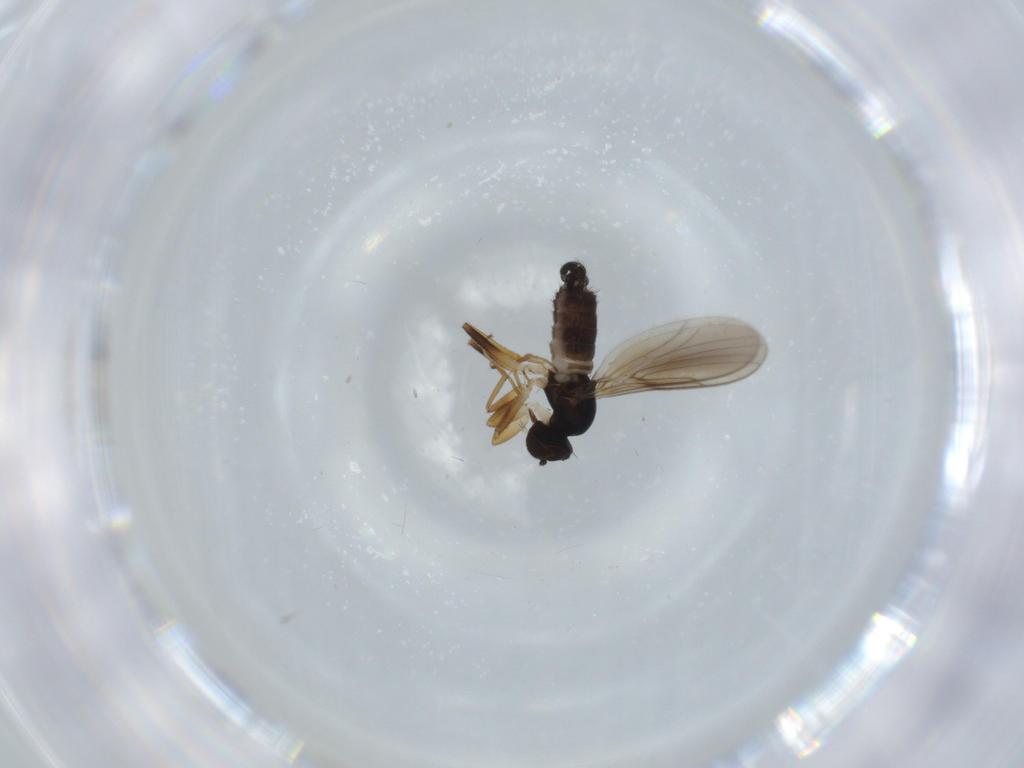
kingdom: Animalia
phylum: Arthropoda
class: Insecta
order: Diptera
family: Hybotidae
